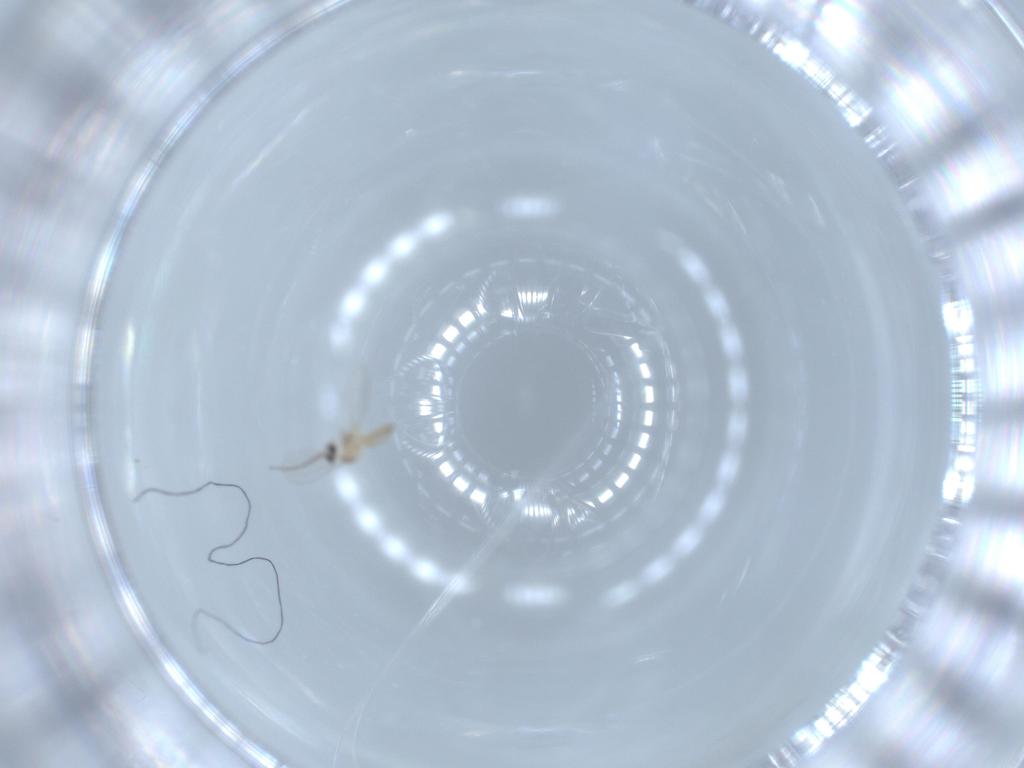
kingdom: Animalia
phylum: Arthropoda
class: Insecta
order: Diptera
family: Cecidomyiidae
